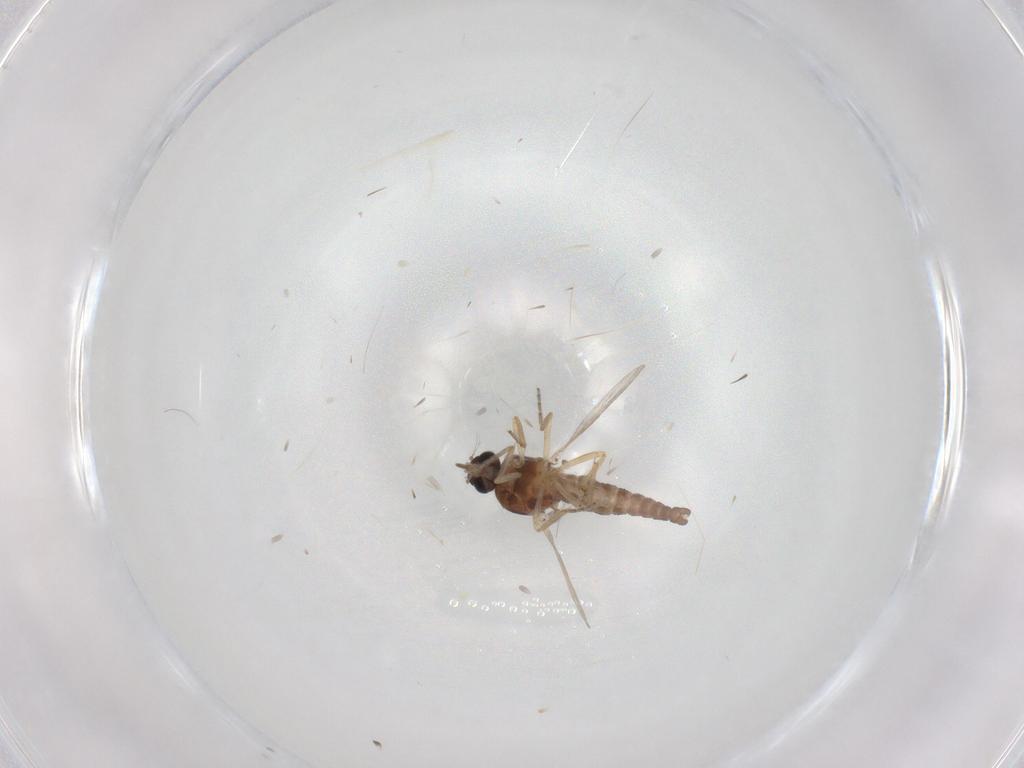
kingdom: Animalia
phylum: Arthropoda
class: Insecta
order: Diptera
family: Ceratopogonidae
